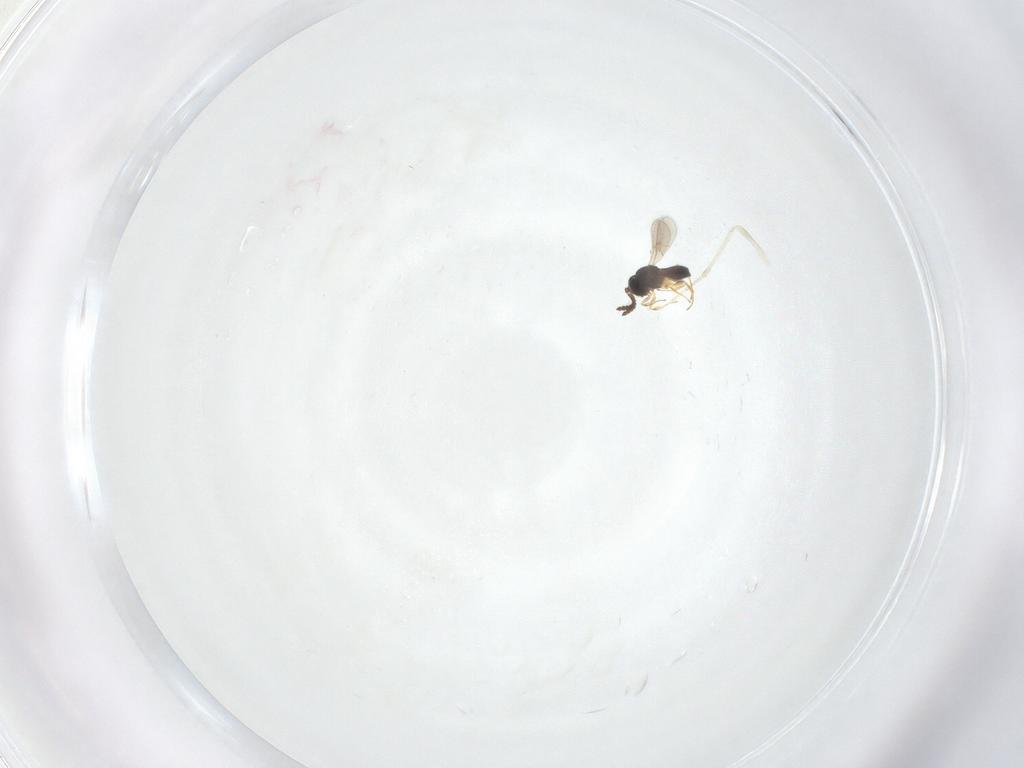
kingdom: Animalia
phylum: Arthropoda
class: Insecta
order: Hymenoptera
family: Scelionidae
